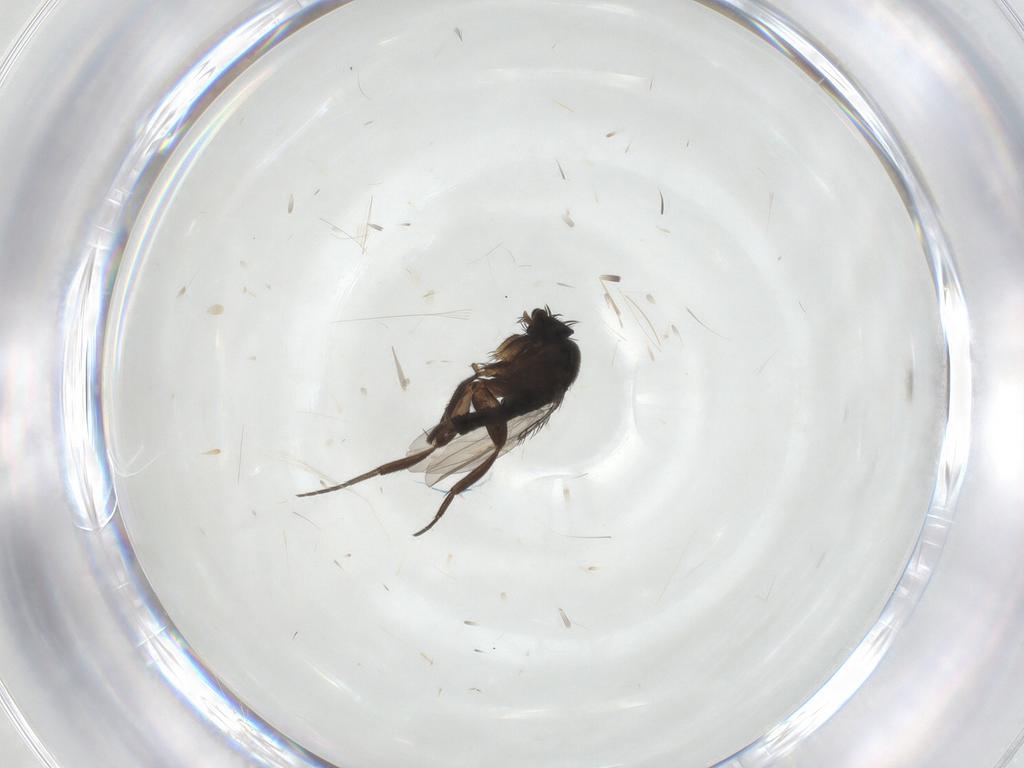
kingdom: Animalia
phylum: Arthropoda
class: Insecta
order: Diptera
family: Phoridae
